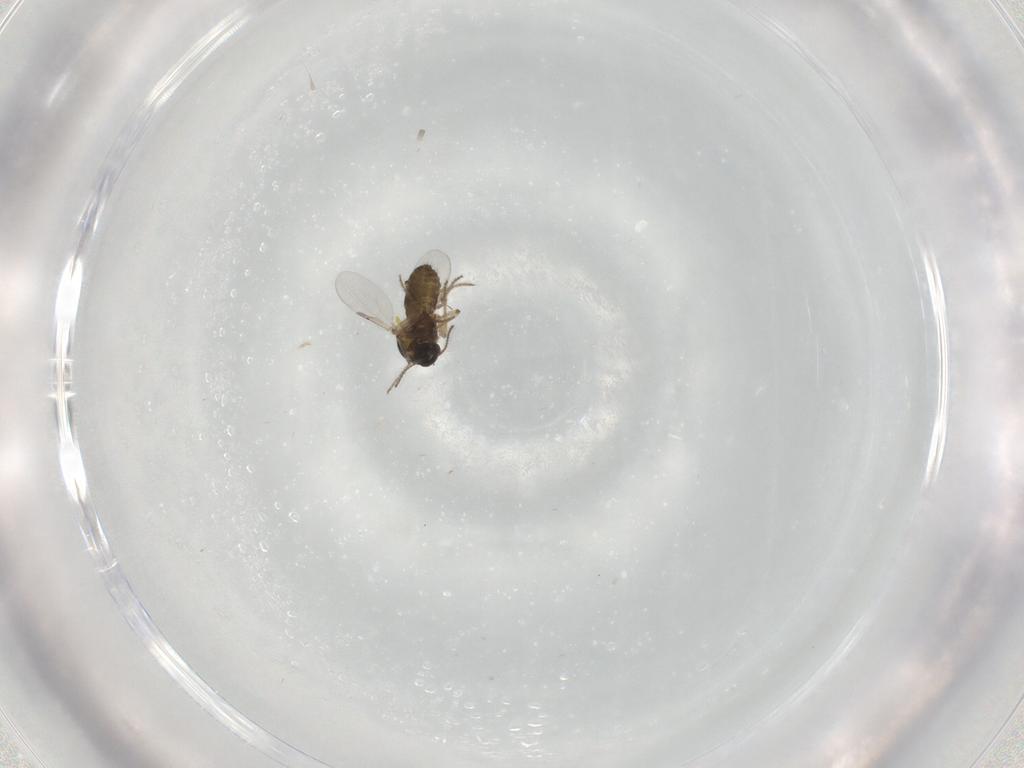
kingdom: Animalia
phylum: Arthropoda
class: Insecta
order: Diptera
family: Ceratopogonidae
